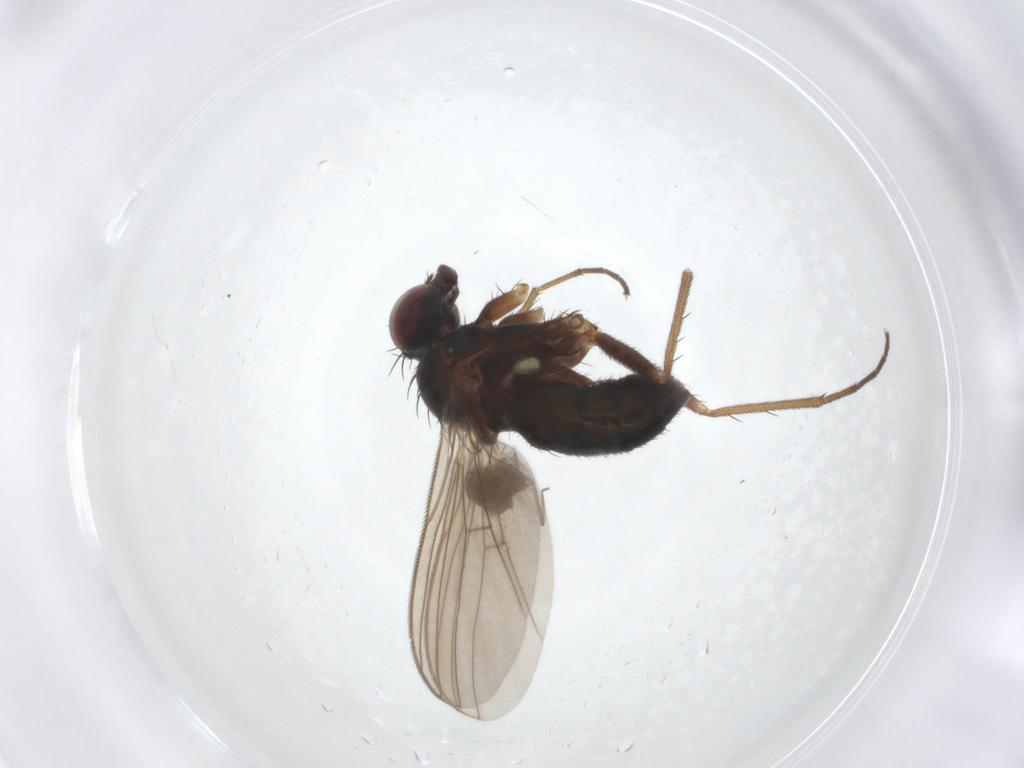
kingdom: Animalia
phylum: Arthropoda
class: Insecta
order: Diptera
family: Dolichopodidae
